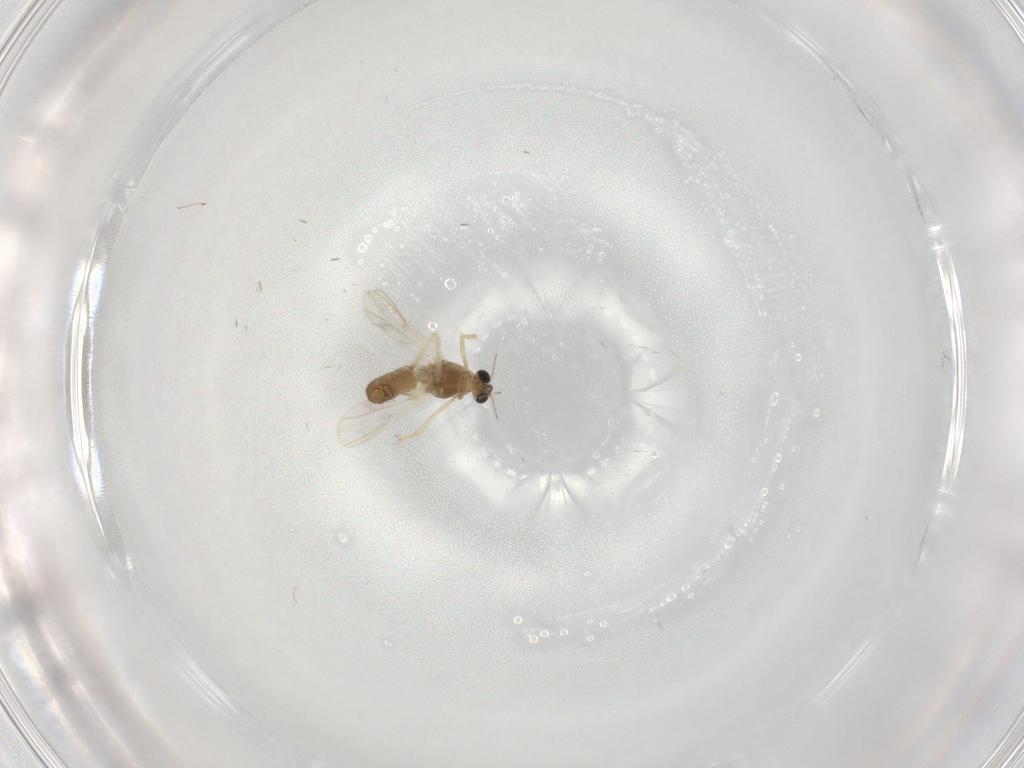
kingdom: Animalia
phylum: Arthropoda
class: Insecta
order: Diptera
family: Chironomidae
